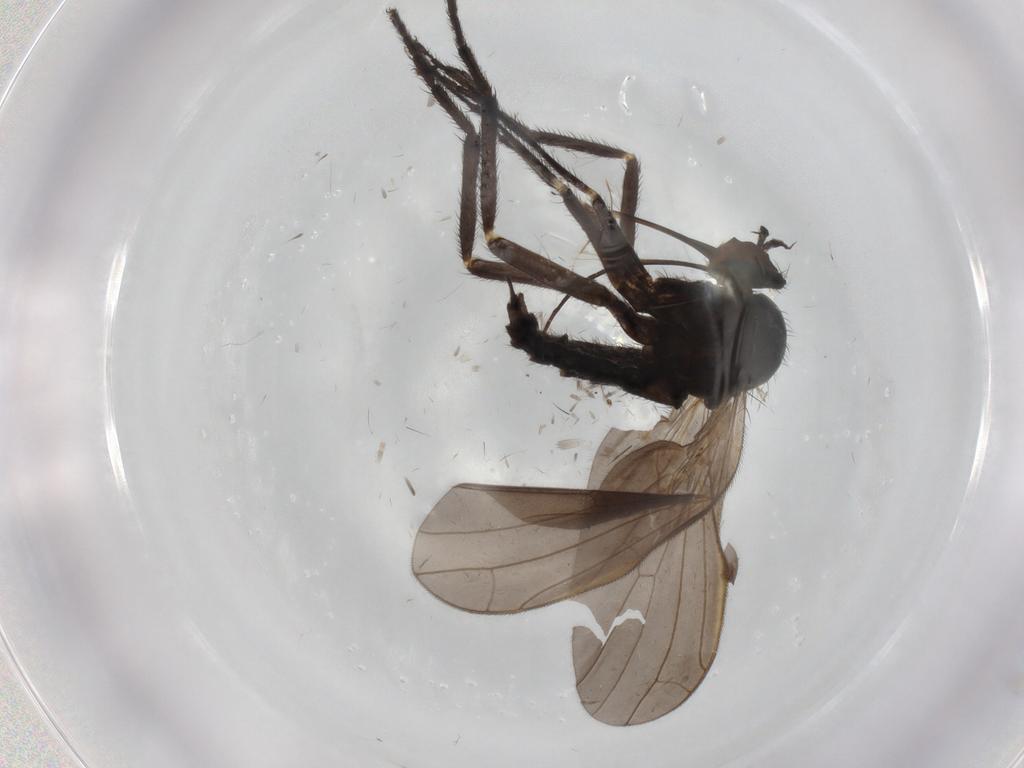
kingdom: Animalia
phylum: Arthropoda
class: Insecta
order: Diptera
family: Empididae
